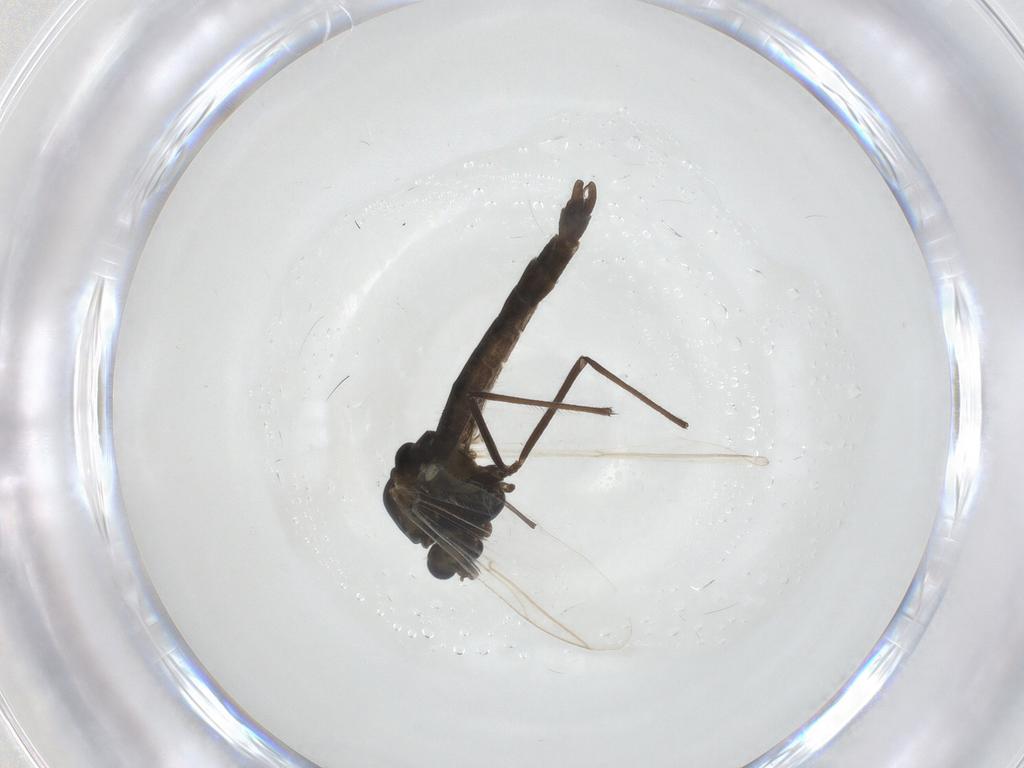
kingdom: Animalia
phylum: Arthropoda
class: Insecta
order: Diptera
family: Chironomidae
